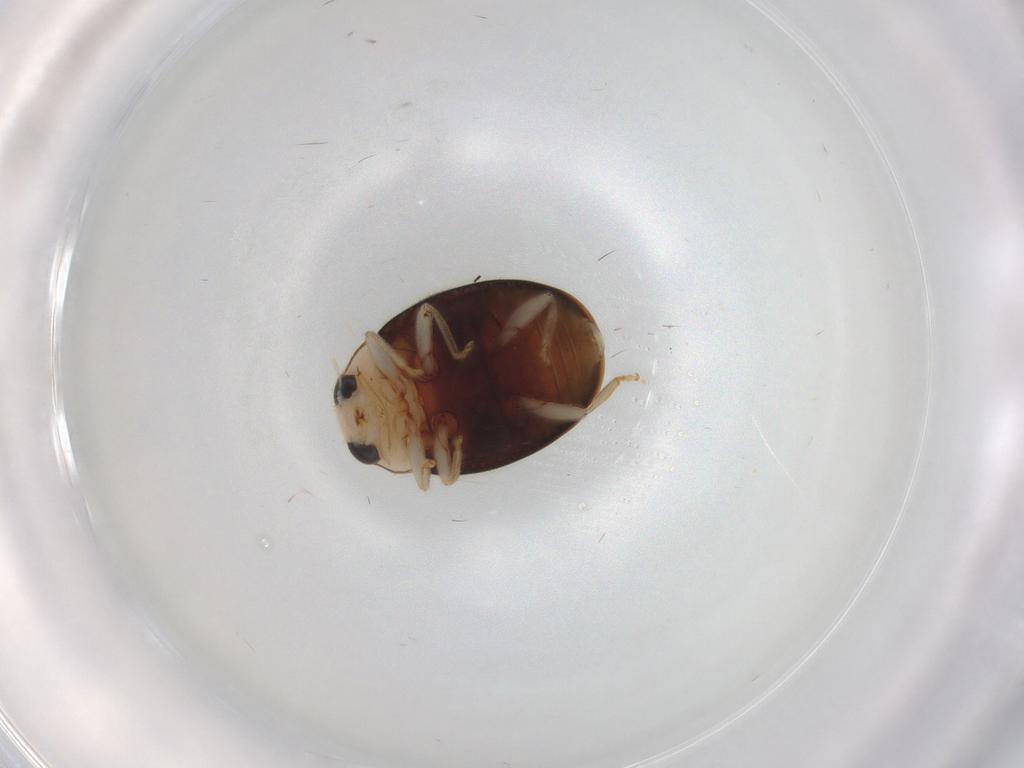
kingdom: Animalia
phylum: Arthropoda
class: Insecta
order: Coleoptera
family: Coccinellidae
